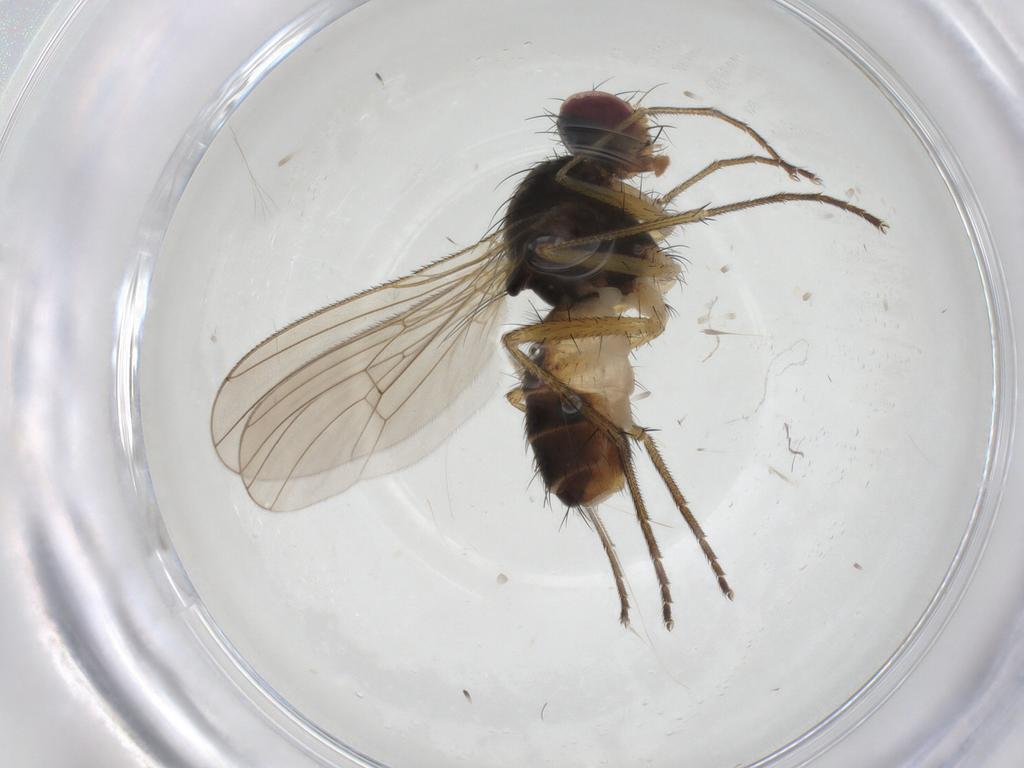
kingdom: Animalia
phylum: Arthropoda
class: Insecta
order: Diptera
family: Muscidae
